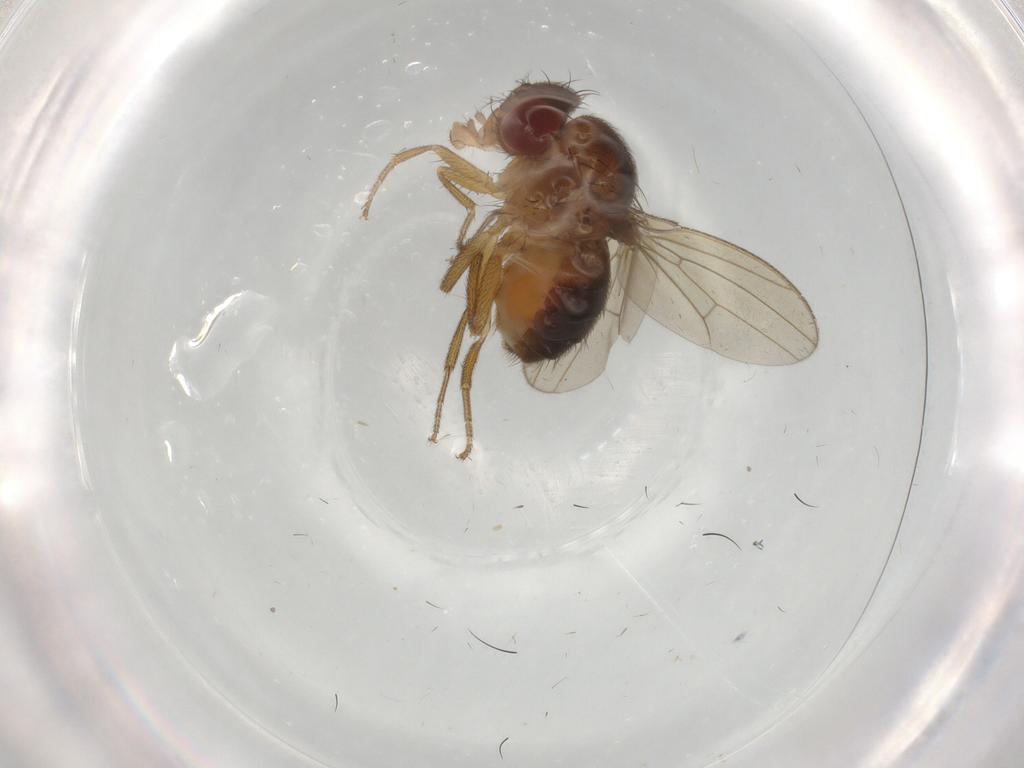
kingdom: Animalia
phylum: Arthropoda
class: Insecta
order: Diptera
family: Drosophilidae
